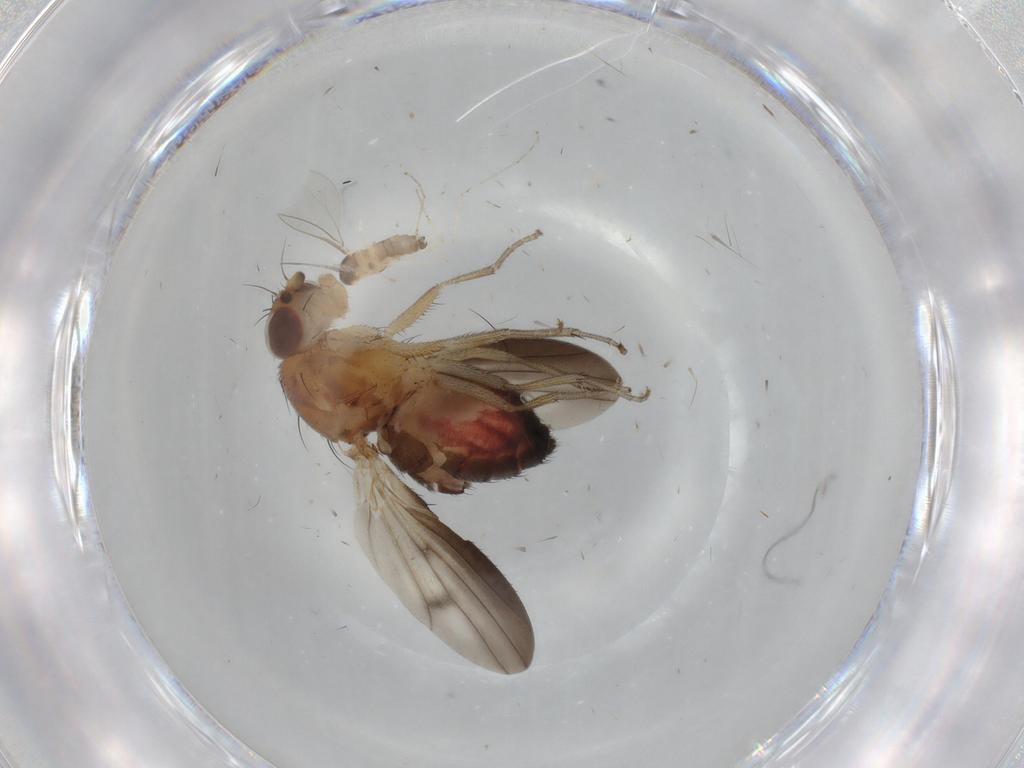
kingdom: Animalia
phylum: Arthropoda
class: Insecta
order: Diptera
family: Heleomyzidae
